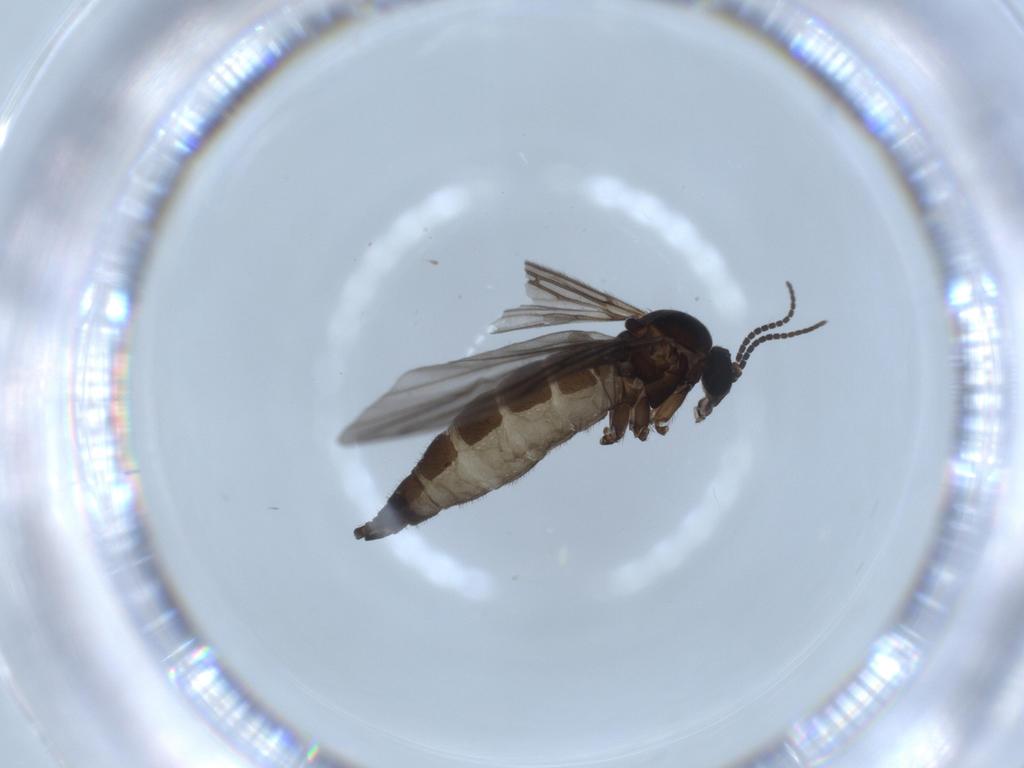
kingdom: Animalia
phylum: Arthropoda
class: Insecta
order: Diptera
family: Sciaridae
